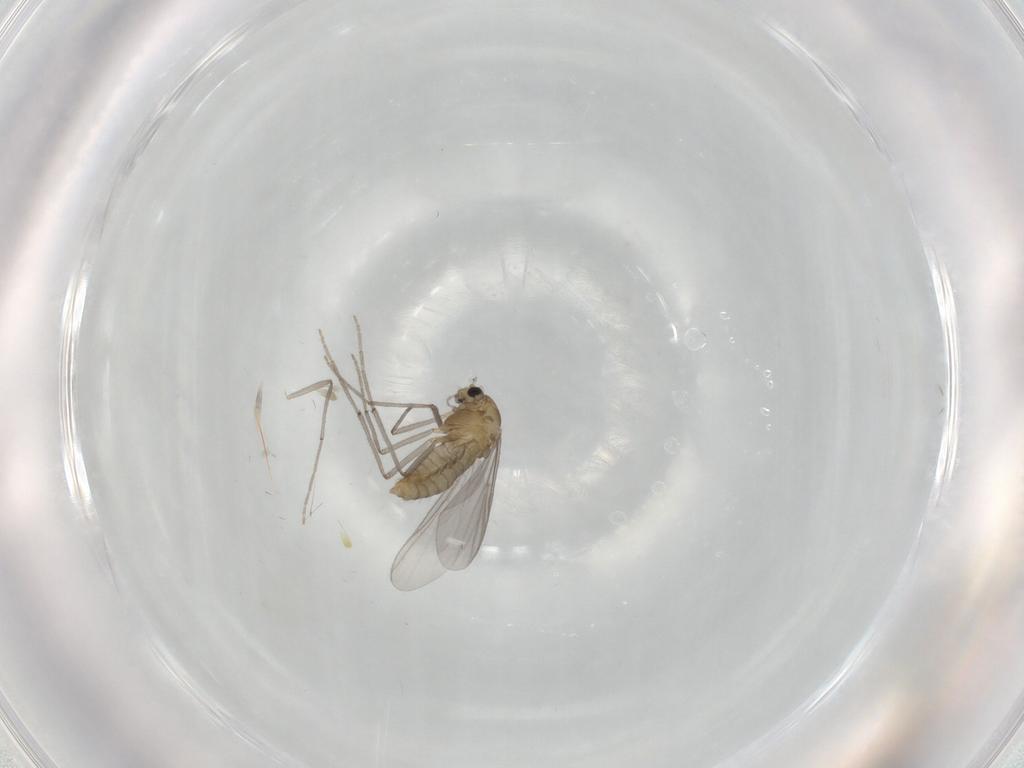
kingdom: Animalia
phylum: Arthropoda
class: Insecta
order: Diptera
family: Chironomidae
